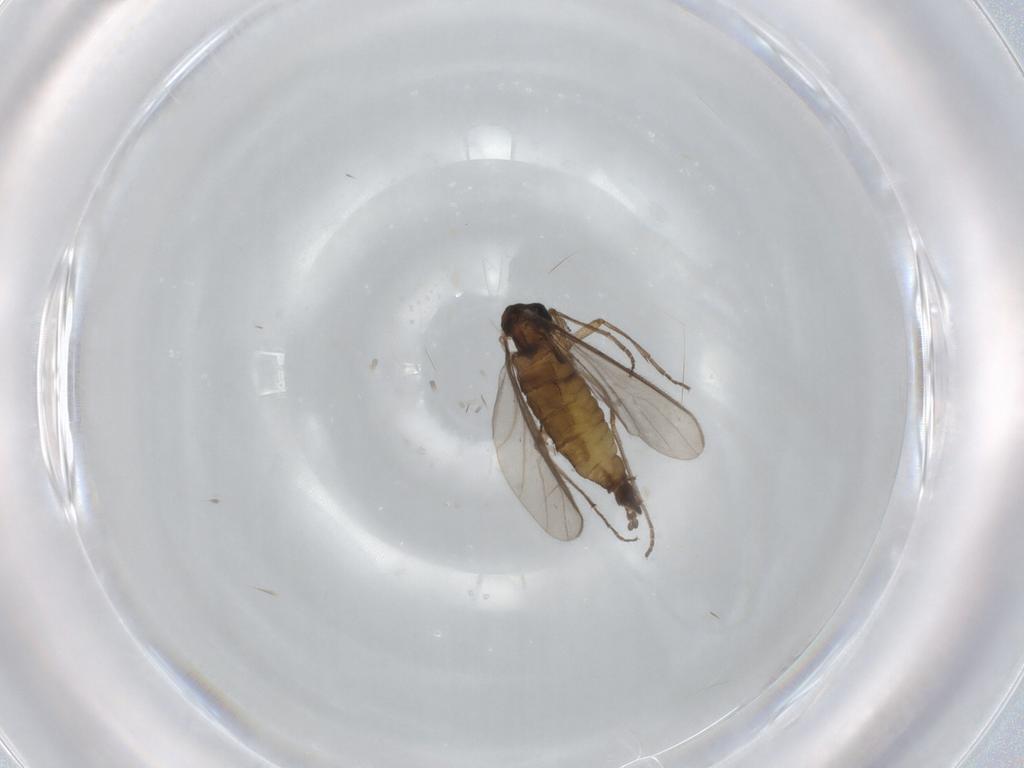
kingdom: Animalia
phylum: Arthropoda
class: Insecta
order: Diptera
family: Sciaridae
